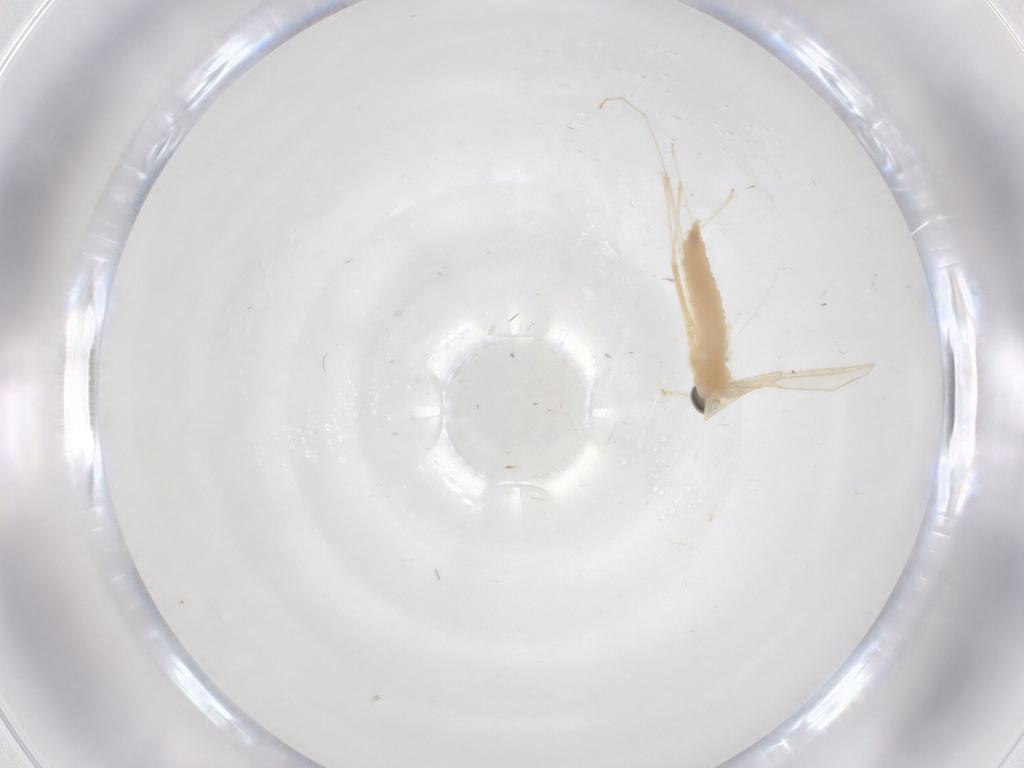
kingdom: Animalia
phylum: Arthropoda
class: Insecta
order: Diptera
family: Cecidomyiidae
